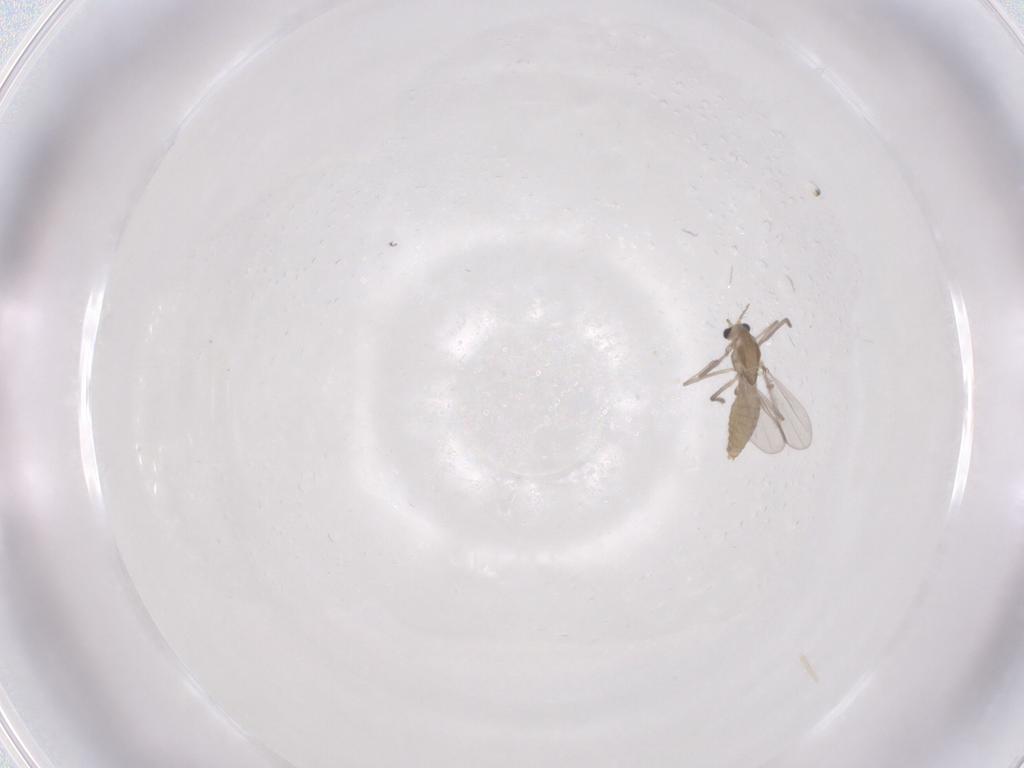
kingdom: Animalia
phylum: Arthropoda
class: Insecta
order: Diptera
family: Chironomidae
